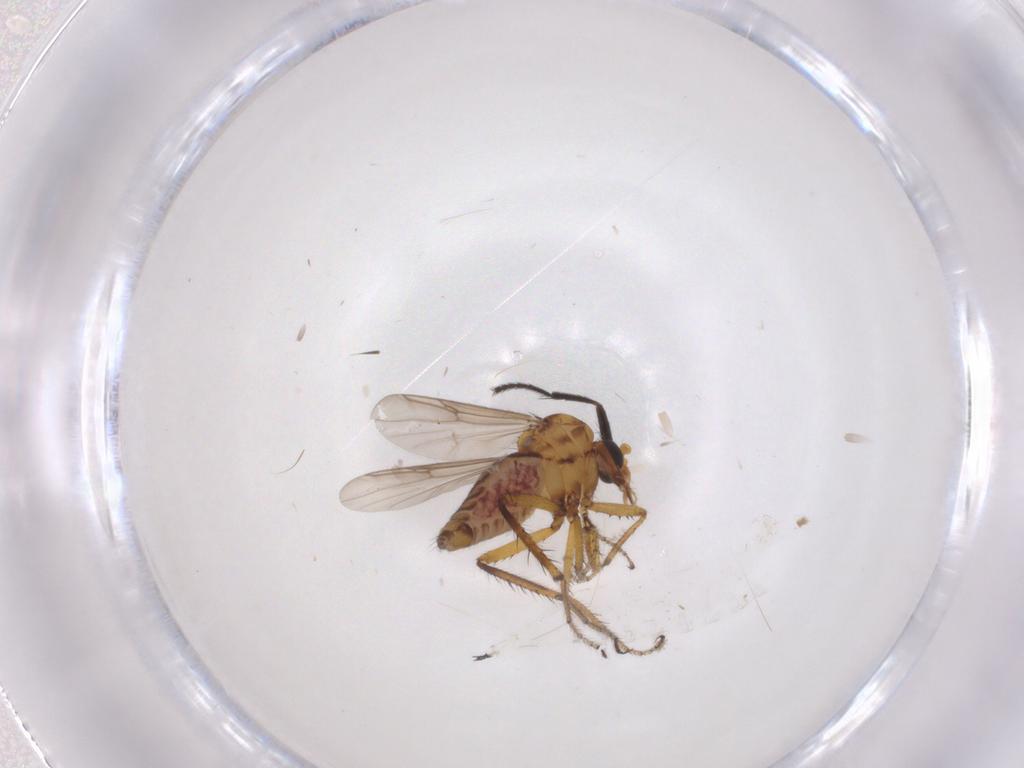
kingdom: Animalia
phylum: Arthropoda
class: Insecta
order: Diptera
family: Ceratopogonidae
